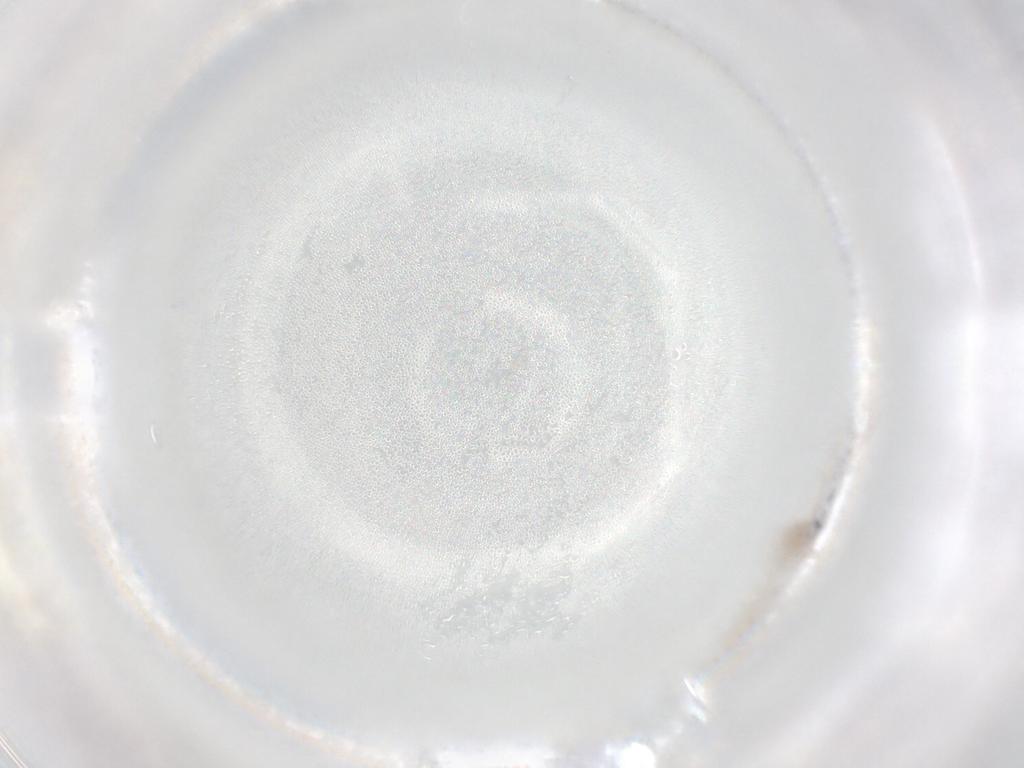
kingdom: Animalia
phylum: Arthropoda
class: Insecta
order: Diptera
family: Cecidomyiidae
